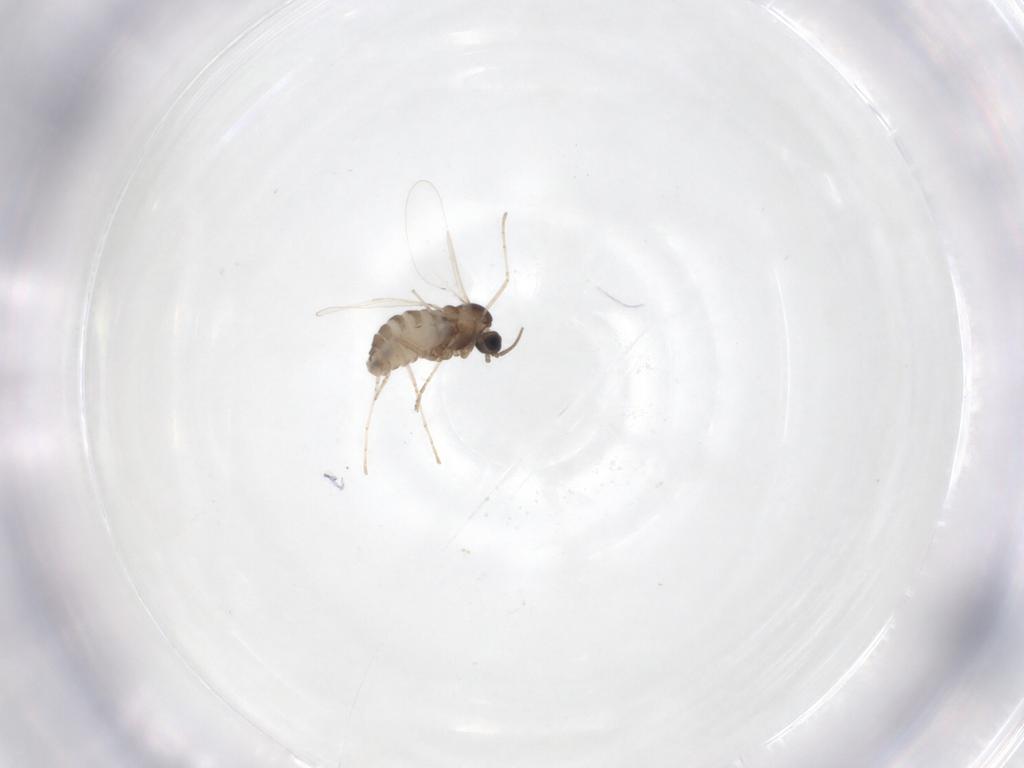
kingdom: Animalia
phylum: Arthropoda
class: Insecta
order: Diptera
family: Cecidomyiidae
